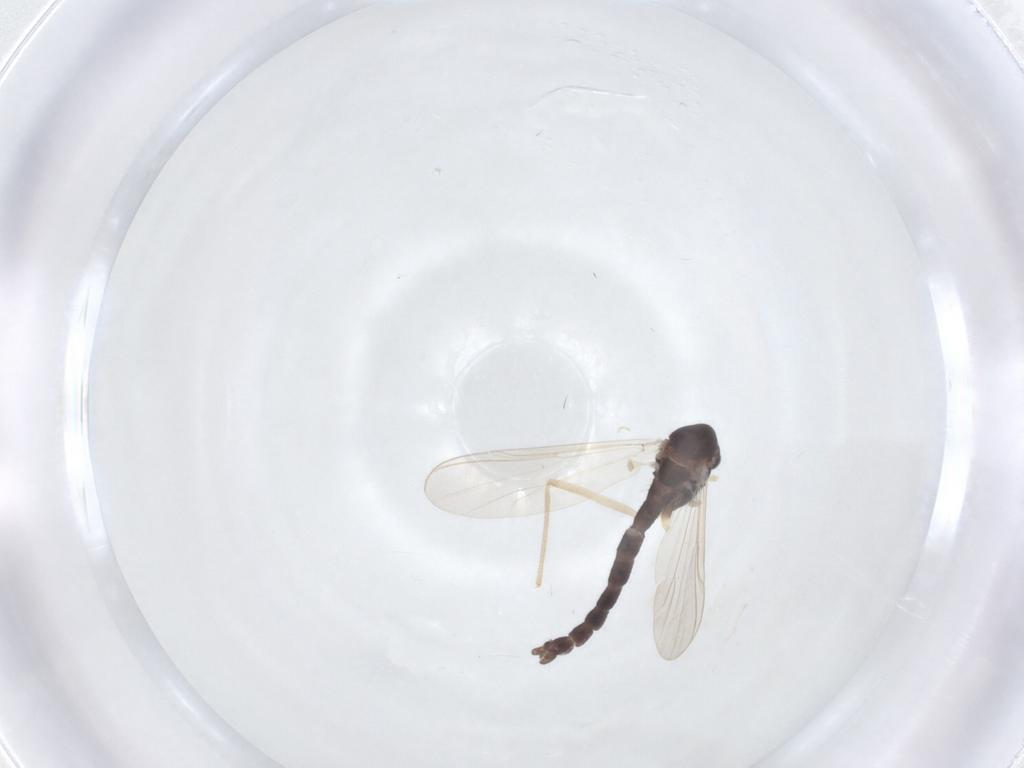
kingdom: Animalia
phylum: Arthropoda
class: Insecta
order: Diptera
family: Chironomidae
